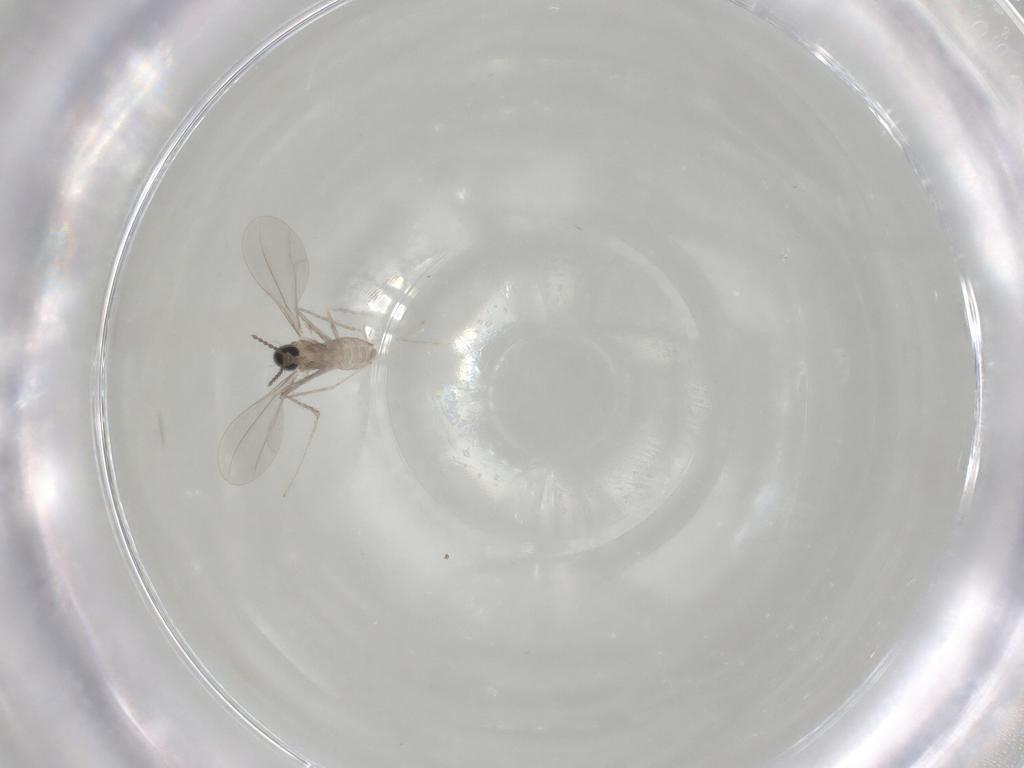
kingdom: Animalia
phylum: Arthropoda
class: Insecta
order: Diptera
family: Cecidomyiidae
